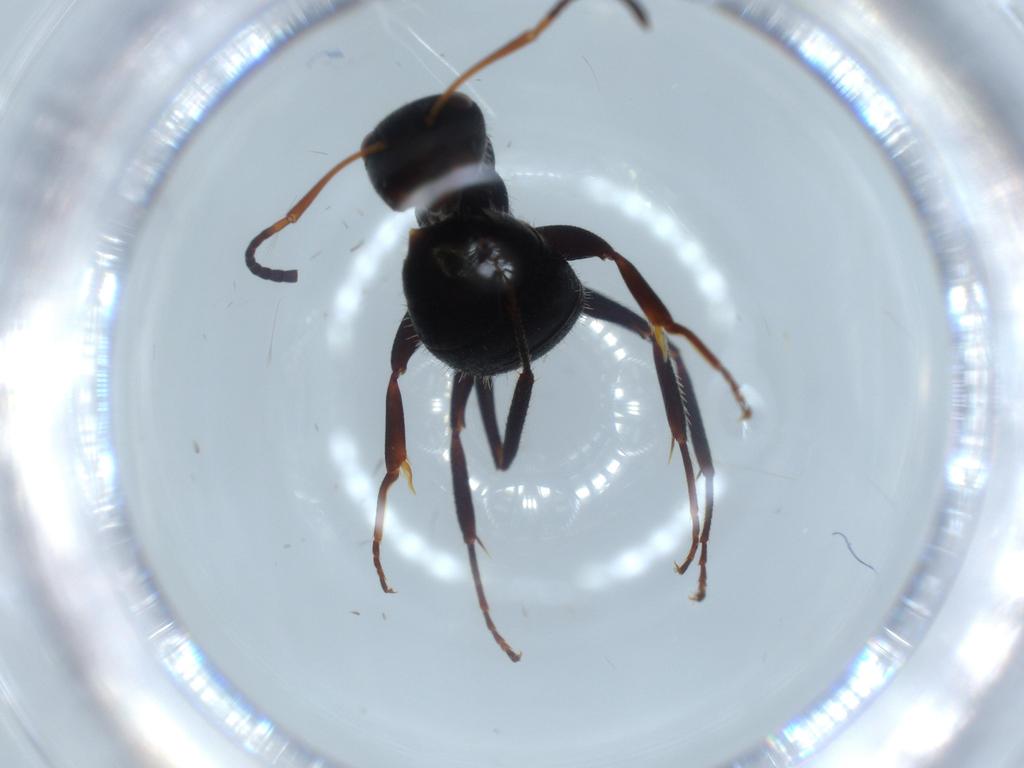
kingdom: Animalia
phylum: Arthropoda
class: Insecta
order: Hymenoptera
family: Formicidae
